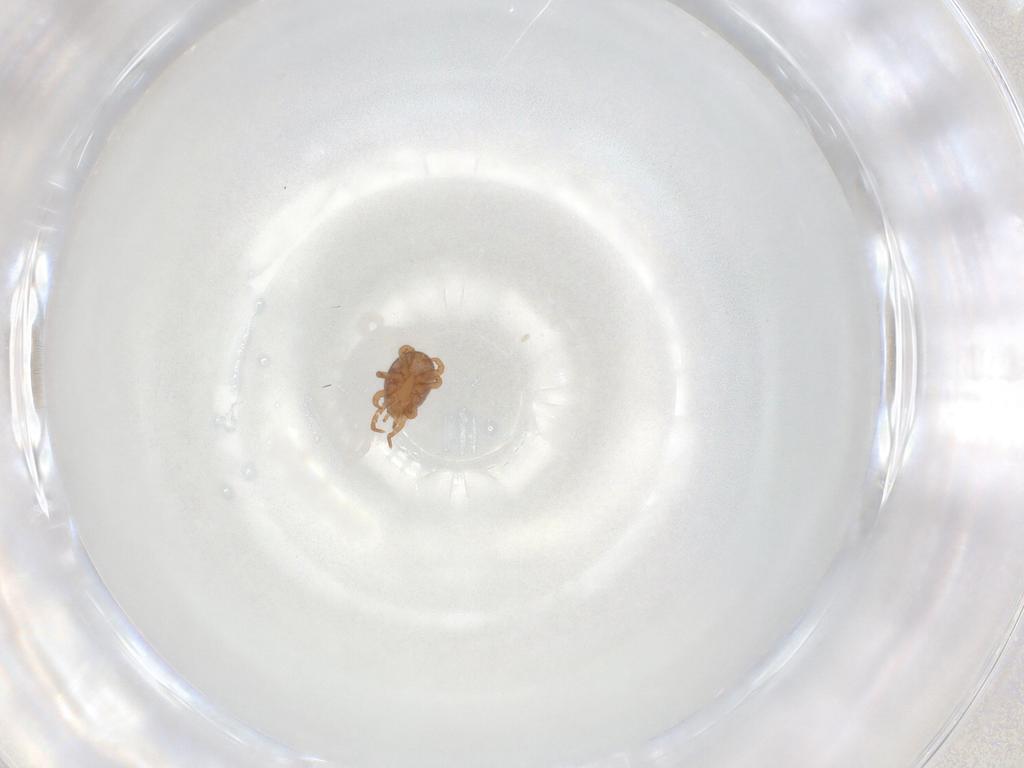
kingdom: Animalia
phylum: Arthropoda
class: Arachnida
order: Mesostigmata
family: Eviphididae
